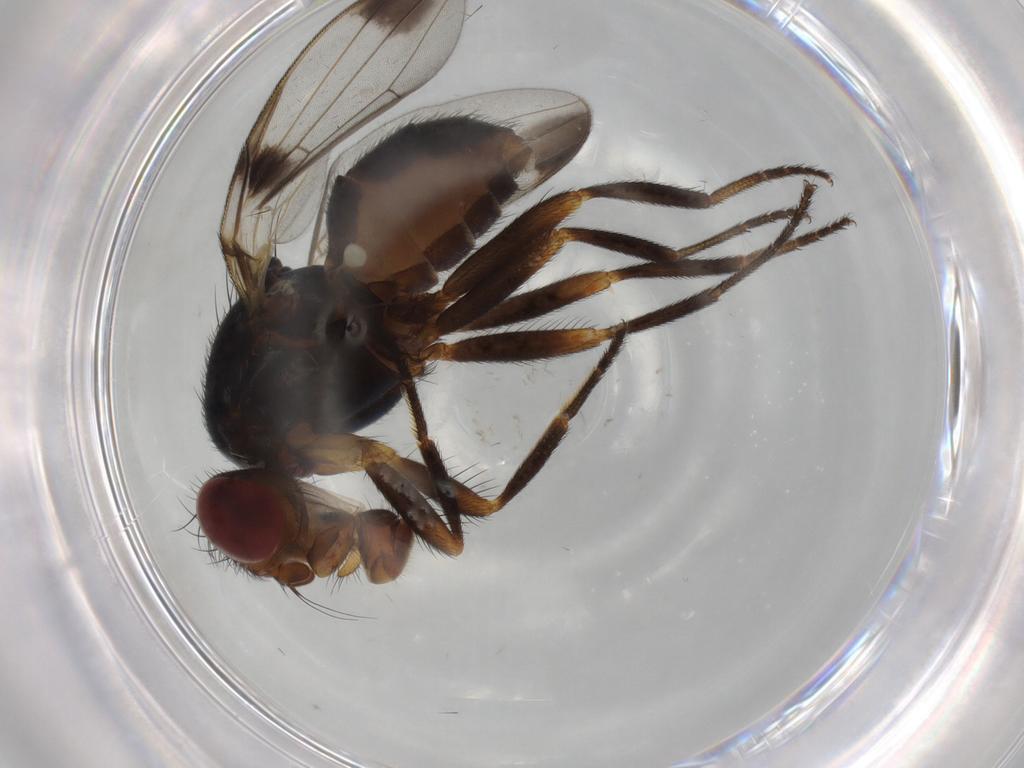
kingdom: Animalia
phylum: Arthropoda
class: Insecta
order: Diptera
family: Ulidiidae
